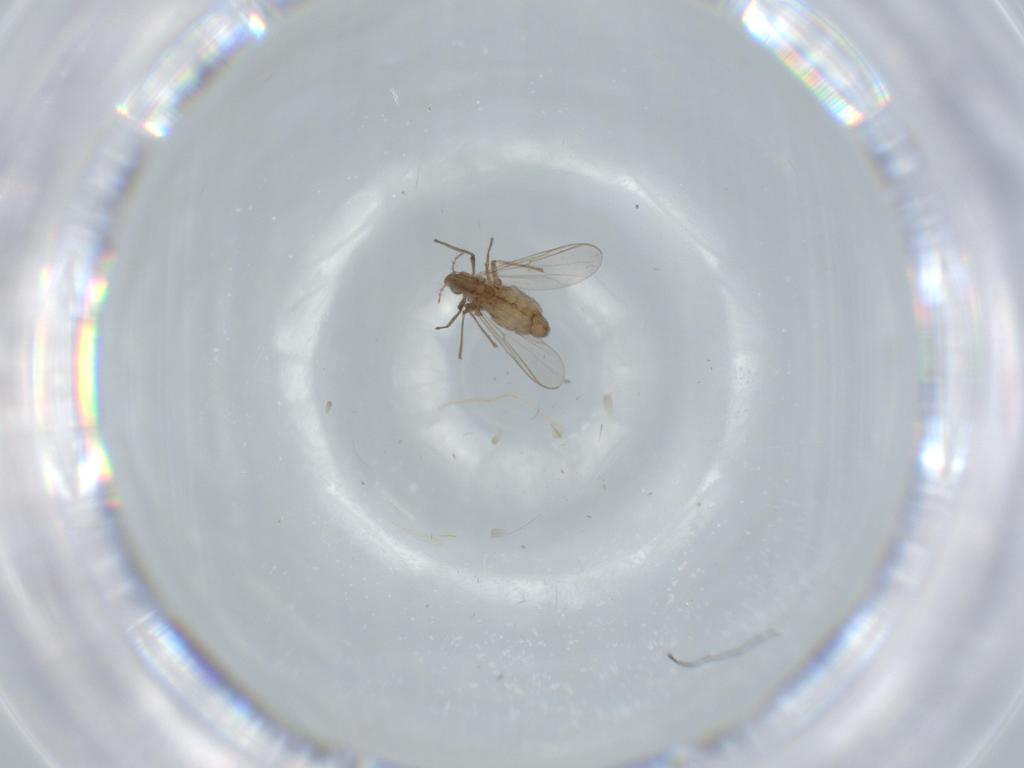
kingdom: Animalia
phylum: Arthropoda
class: Insecta
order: Diptera
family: Chironomidae
